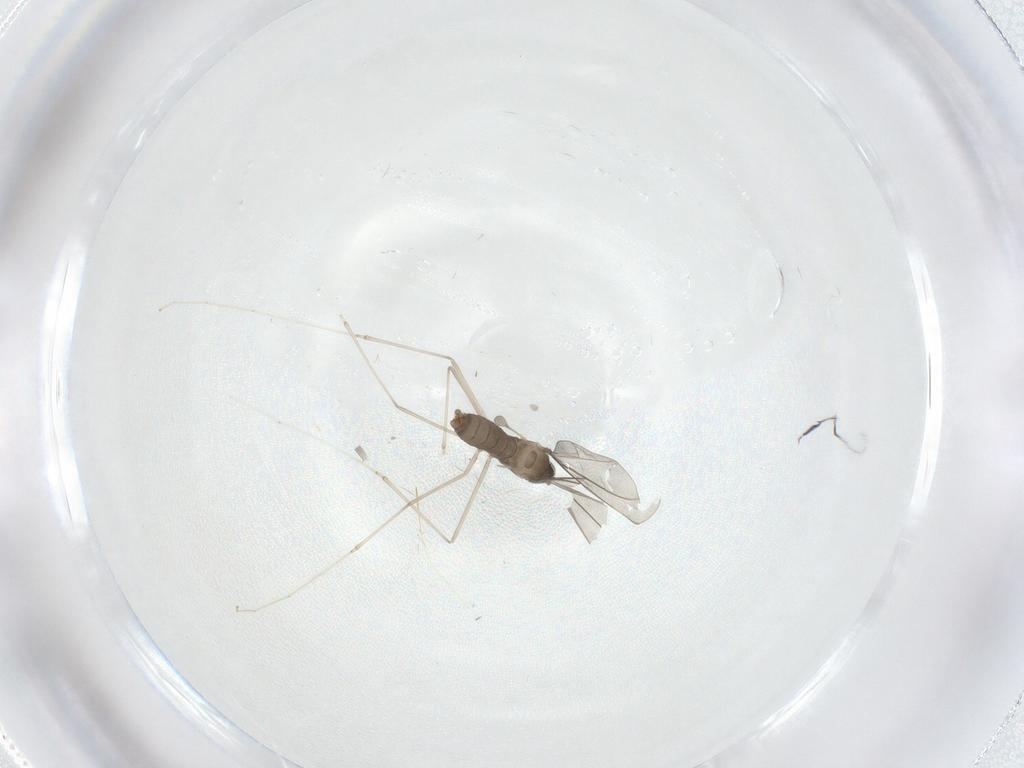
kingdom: Animalia
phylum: Arthropoda
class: Insecta
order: Diptera
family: Cecidomyiidae
